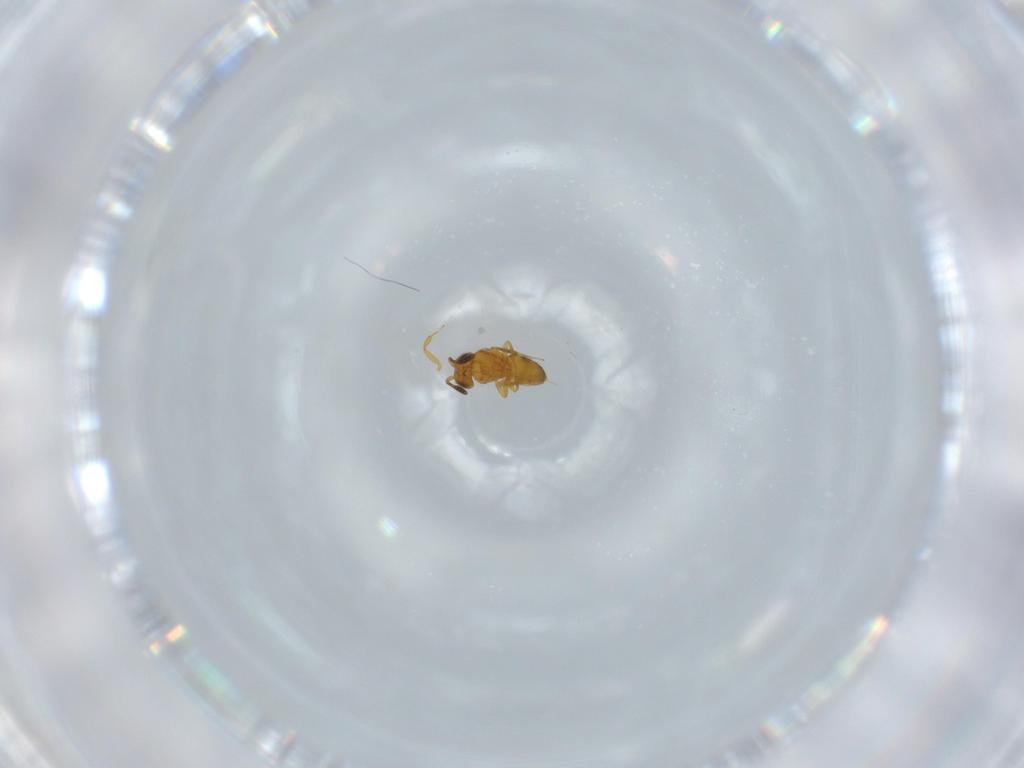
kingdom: Animalia
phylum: Arthropoda
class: Insecta
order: Hymenoptera
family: Scelionidae
